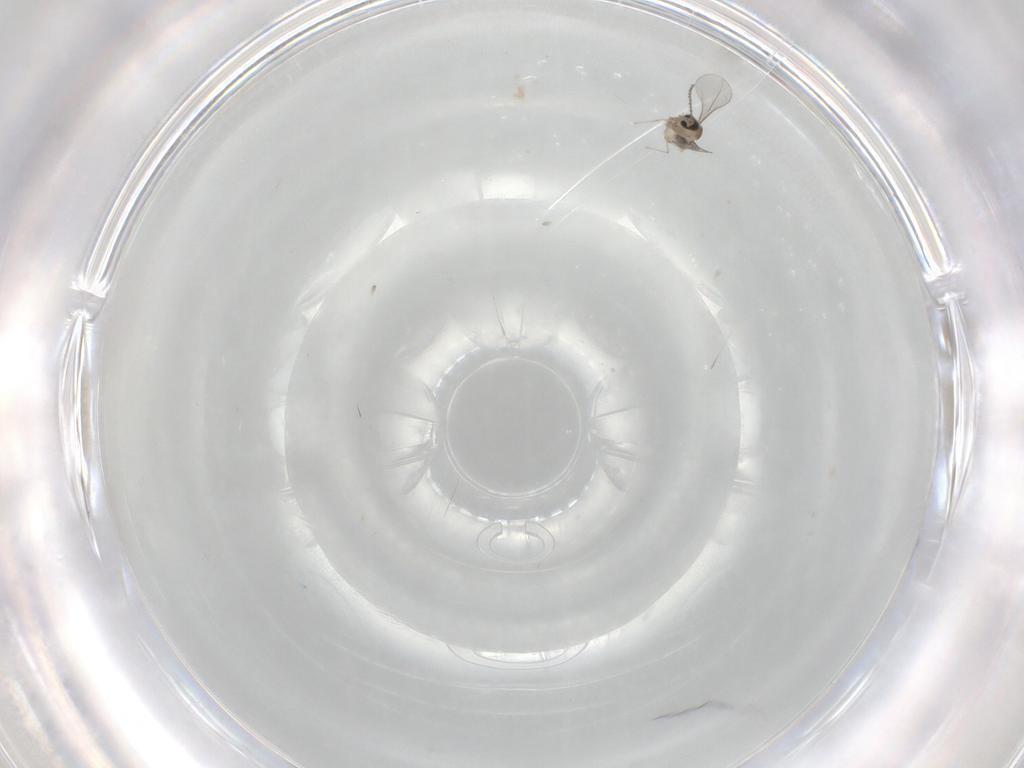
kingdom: Animalia
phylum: Arthropoda
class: Insecta
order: Diptera
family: Cecidomyiidae
